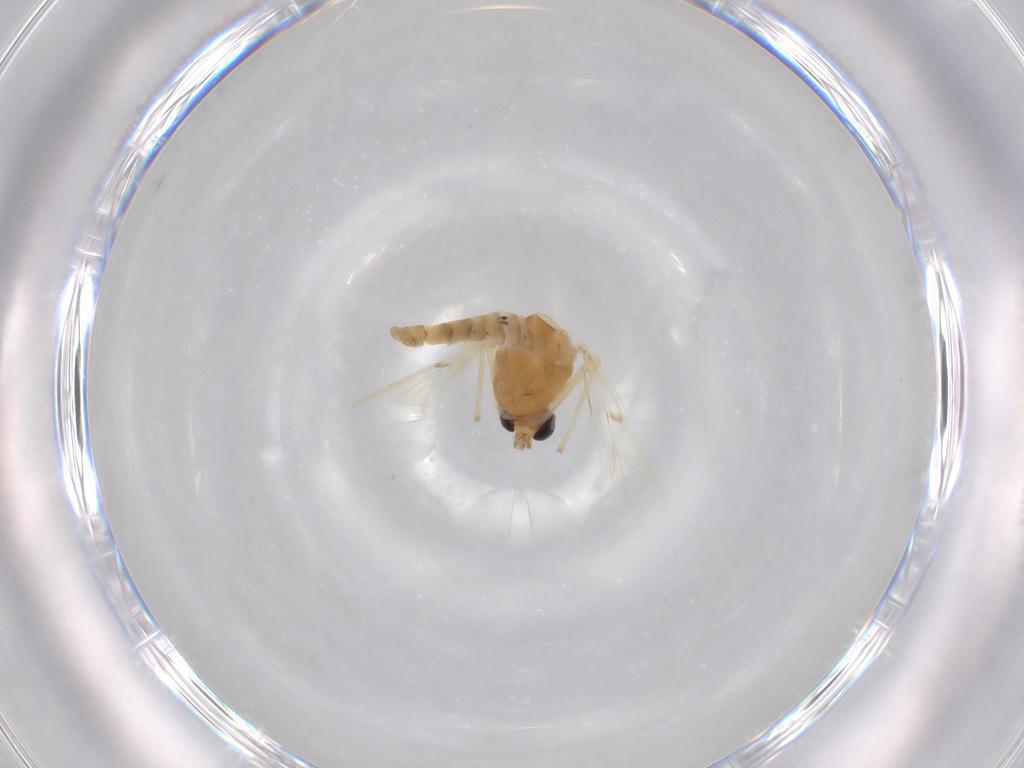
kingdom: Animalia
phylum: Arthropoda
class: Insecta
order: Diptera
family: Chironomidae
